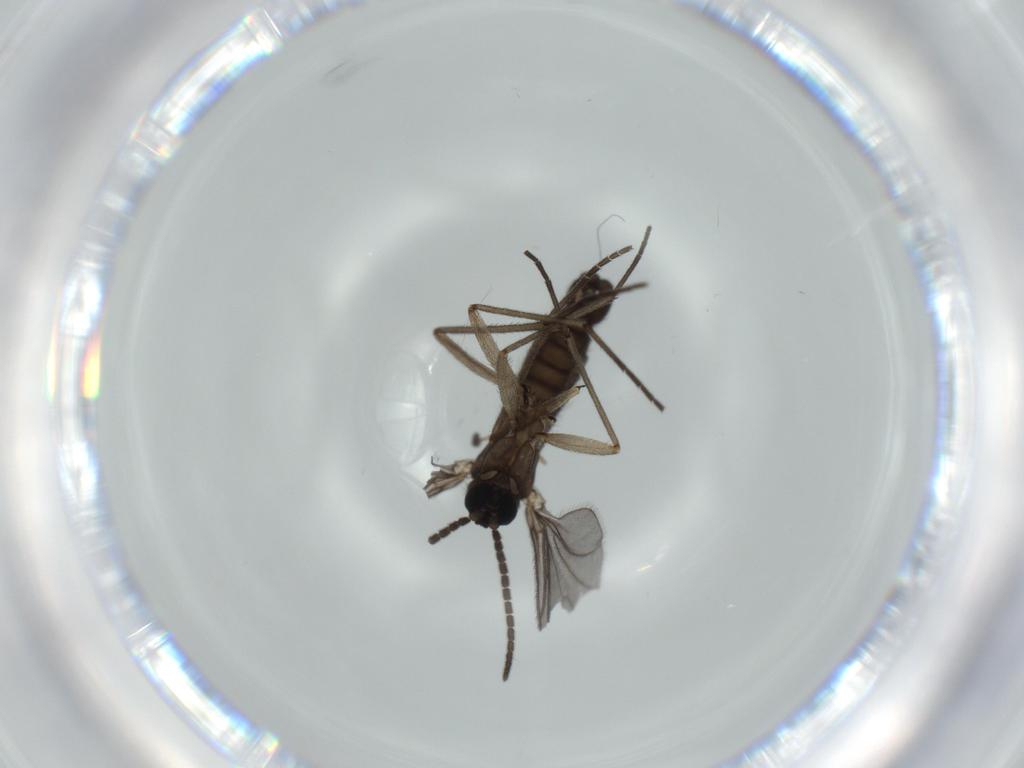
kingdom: Animalia
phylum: Arthropoda
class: Insecta
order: Diptera
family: Sciaridae
